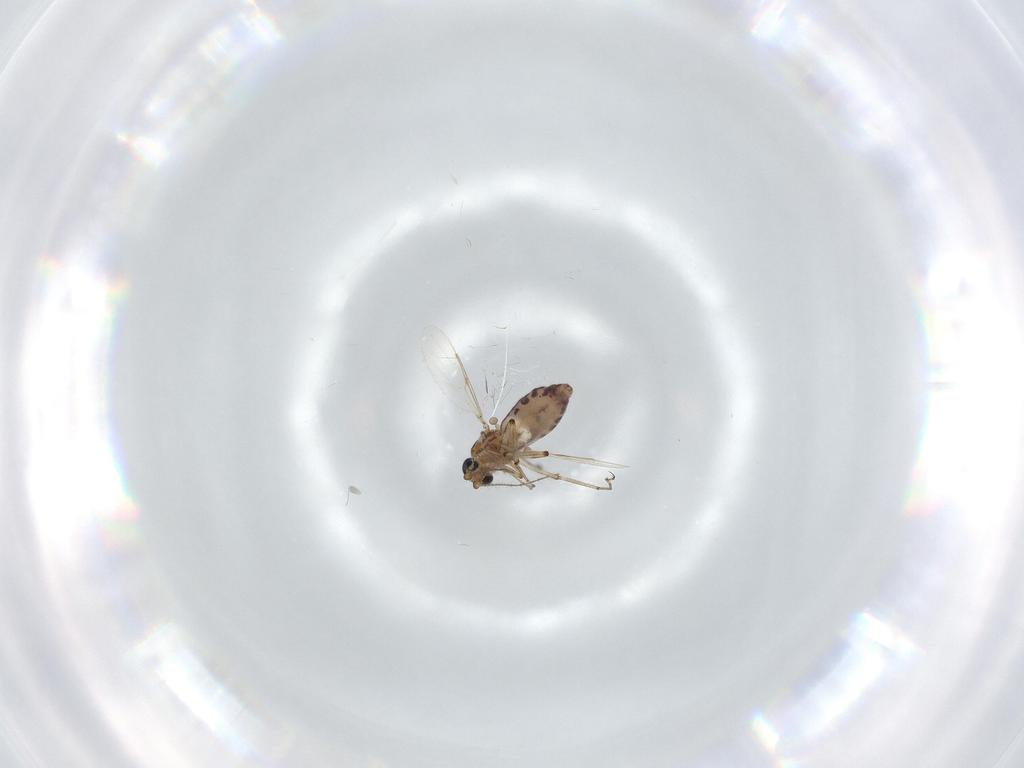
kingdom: Animalia
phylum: Arthropoda
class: Insecta
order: Diptera
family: Ceratopogonidae
